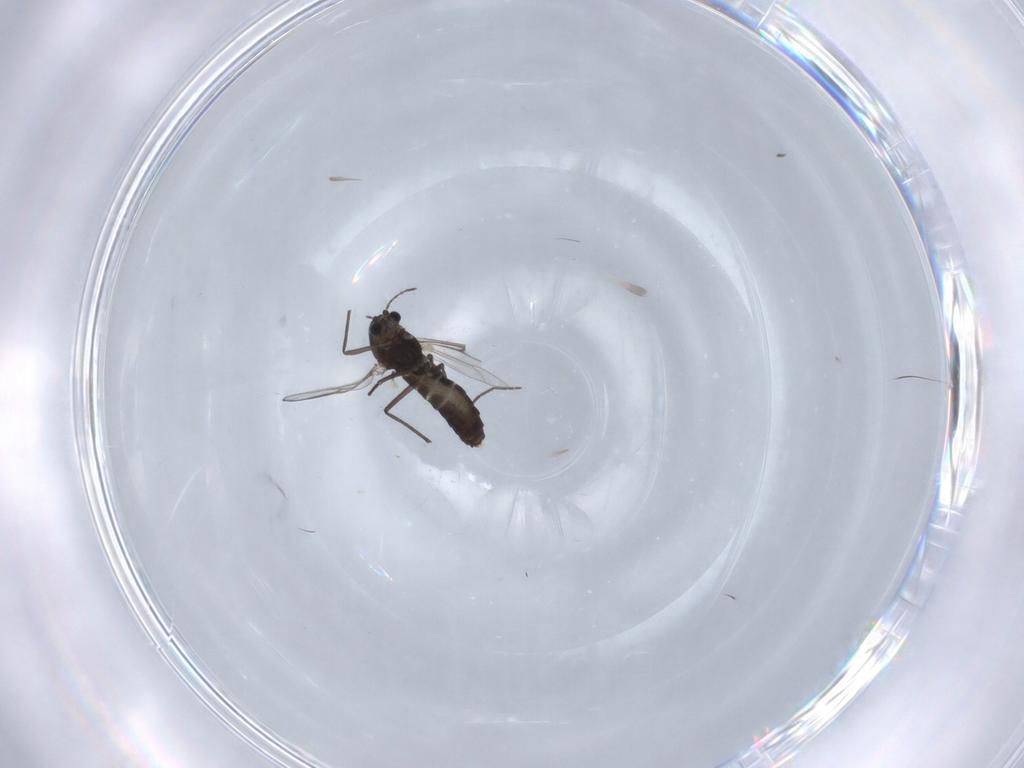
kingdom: Animalia
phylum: Arthropoda
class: Insecta
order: Diptera
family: Chironomidae
